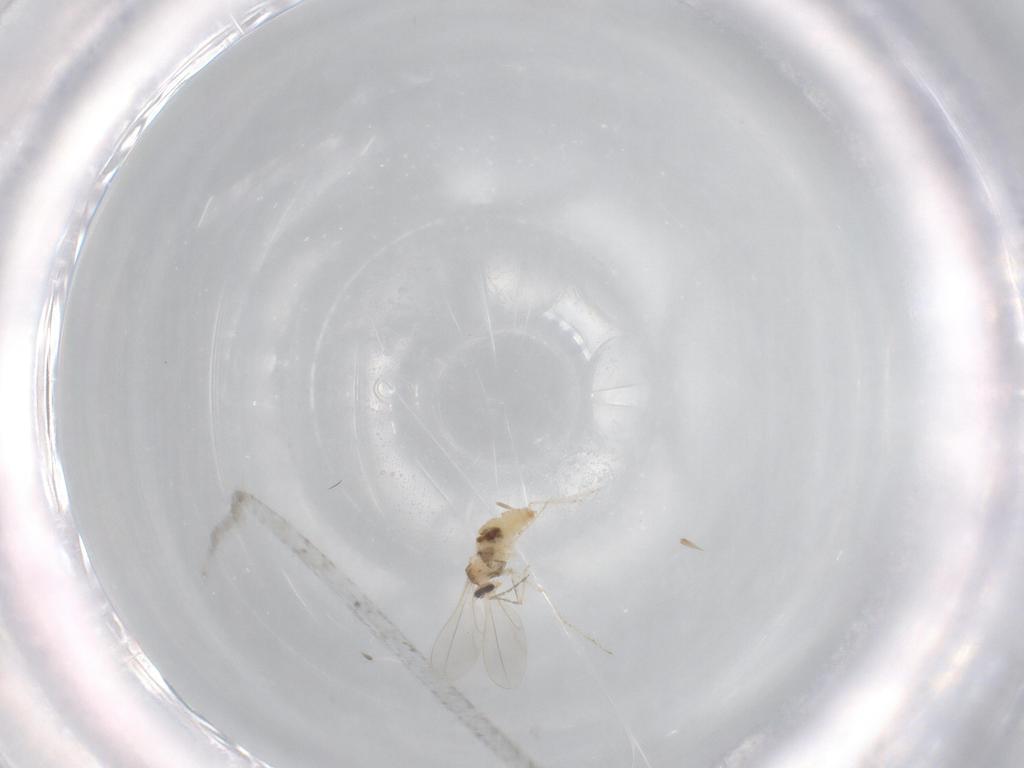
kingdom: Animalia
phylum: Arthropoda
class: Insecta
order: Diptera
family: Cecidomyiidae
